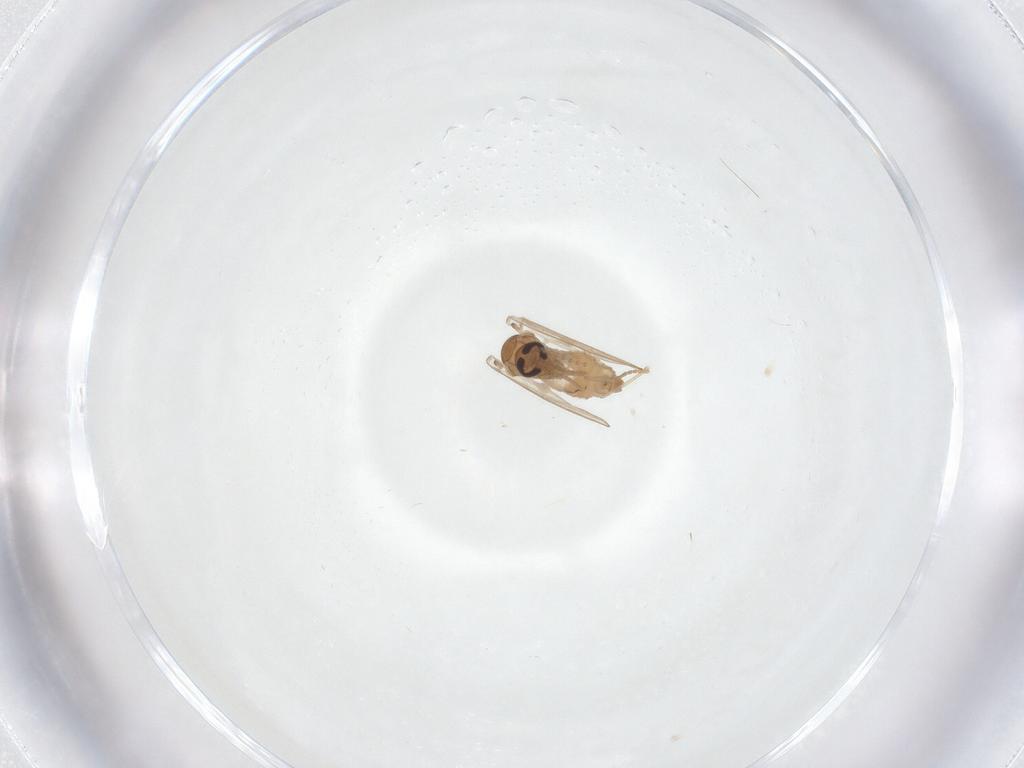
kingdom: Animalia
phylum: Arthropoda
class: Insecta
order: Diptera
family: Psychodidae
